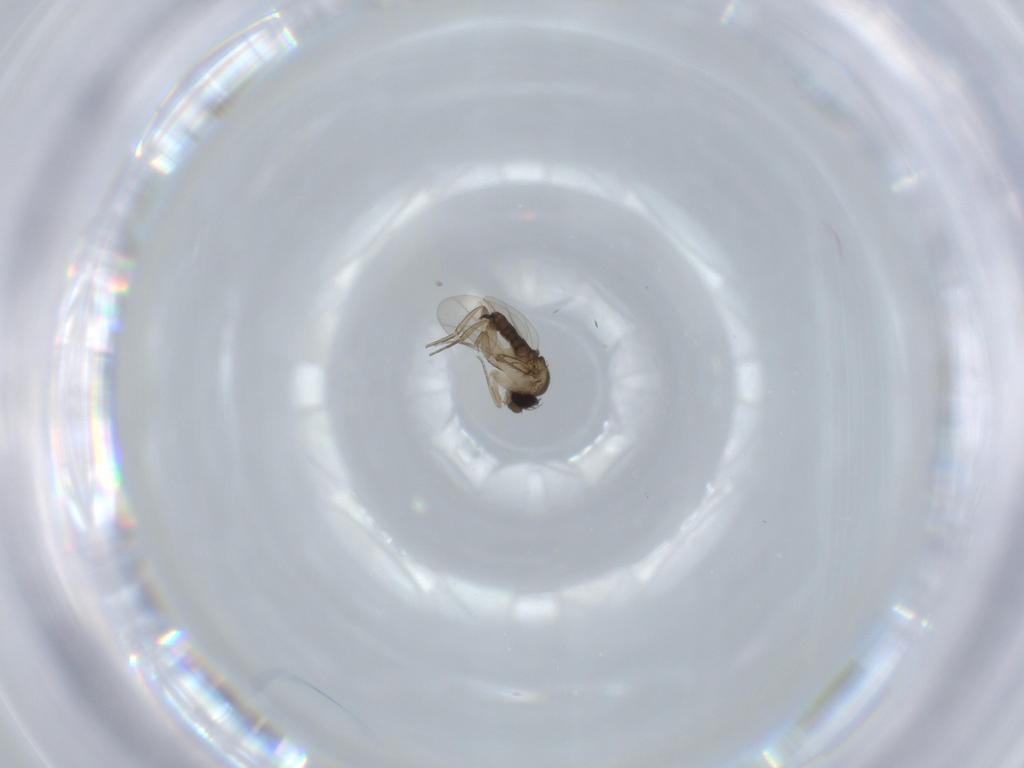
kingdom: Animalia
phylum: Arthropoda
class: Insecta
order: Diptera
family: Phoridae
